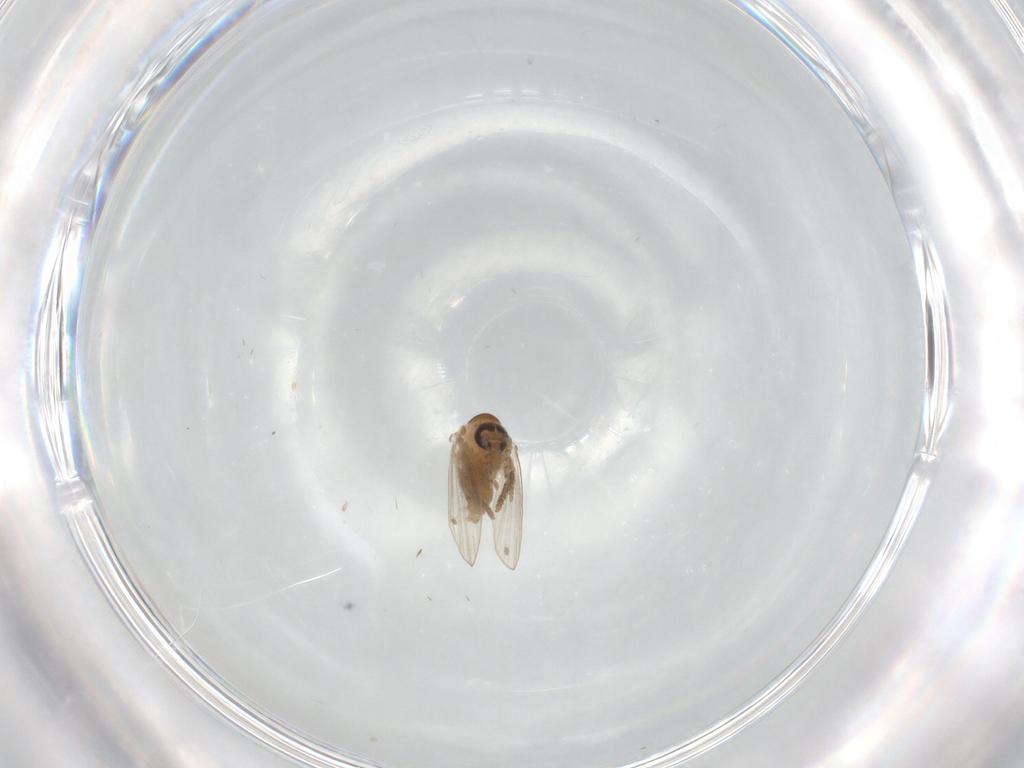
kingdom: Animalia
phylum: Arthropoda
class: Insecta
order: Diptera
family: Psychodidae
